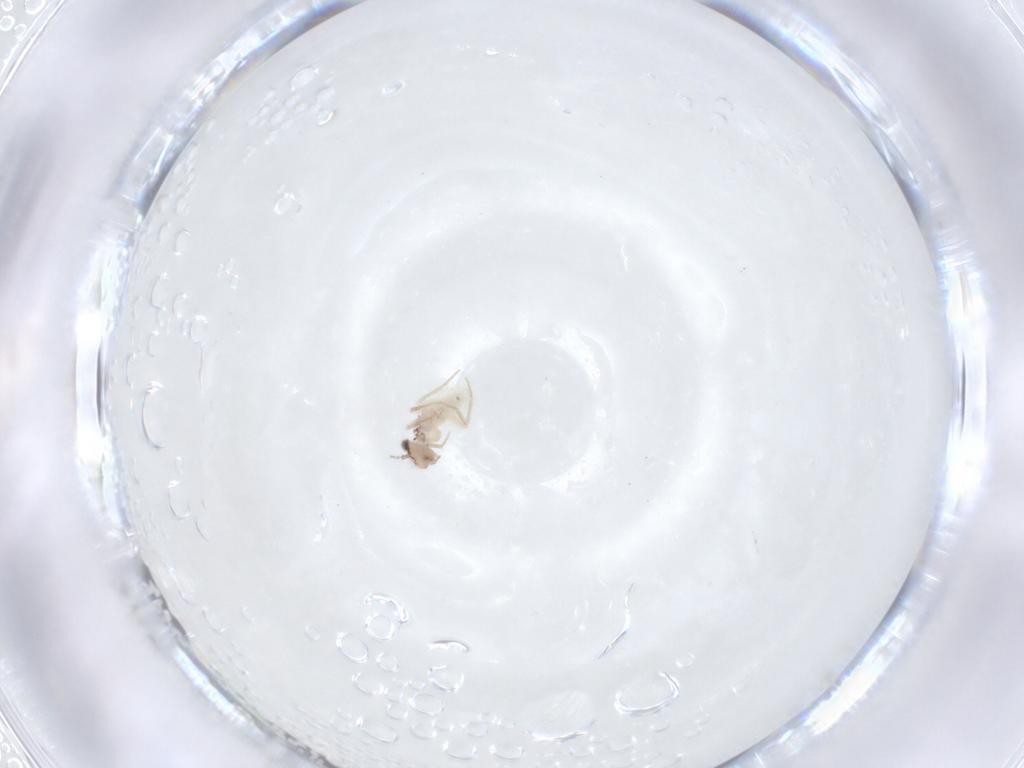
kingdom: Animalia
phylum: Arthropoda
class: Insecta
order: Psocodea
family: Lepidopsocidae
